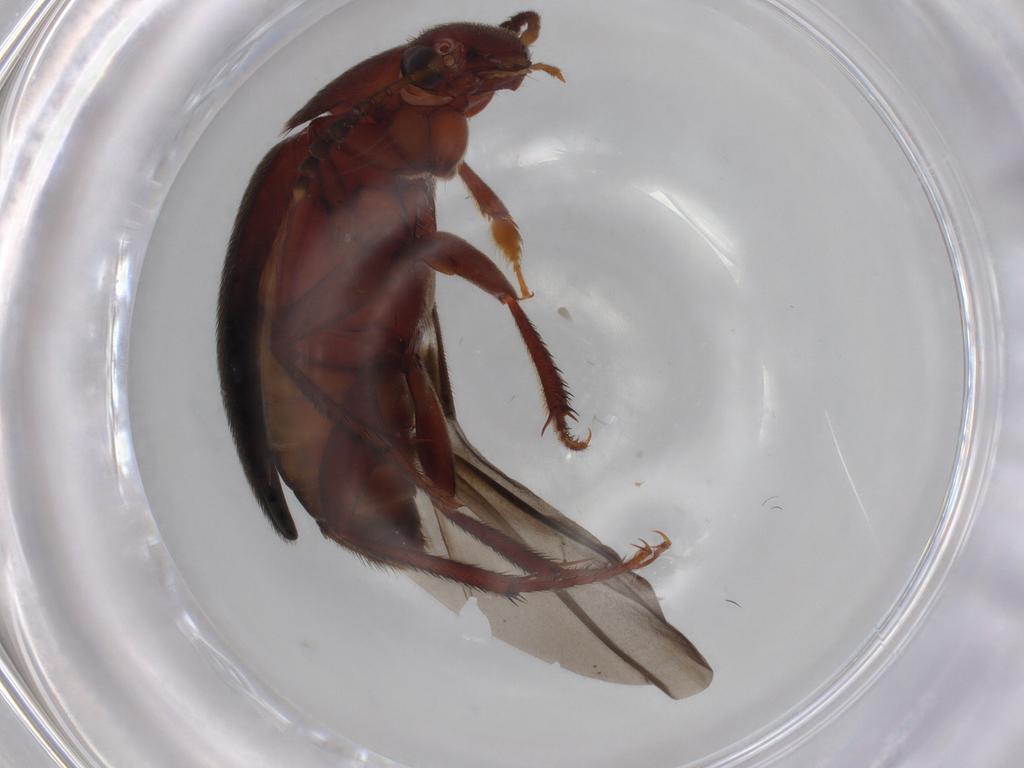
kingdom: Animalia
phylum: Arthropoda
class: Insecta
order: Coleoptera
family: Leiodidae
